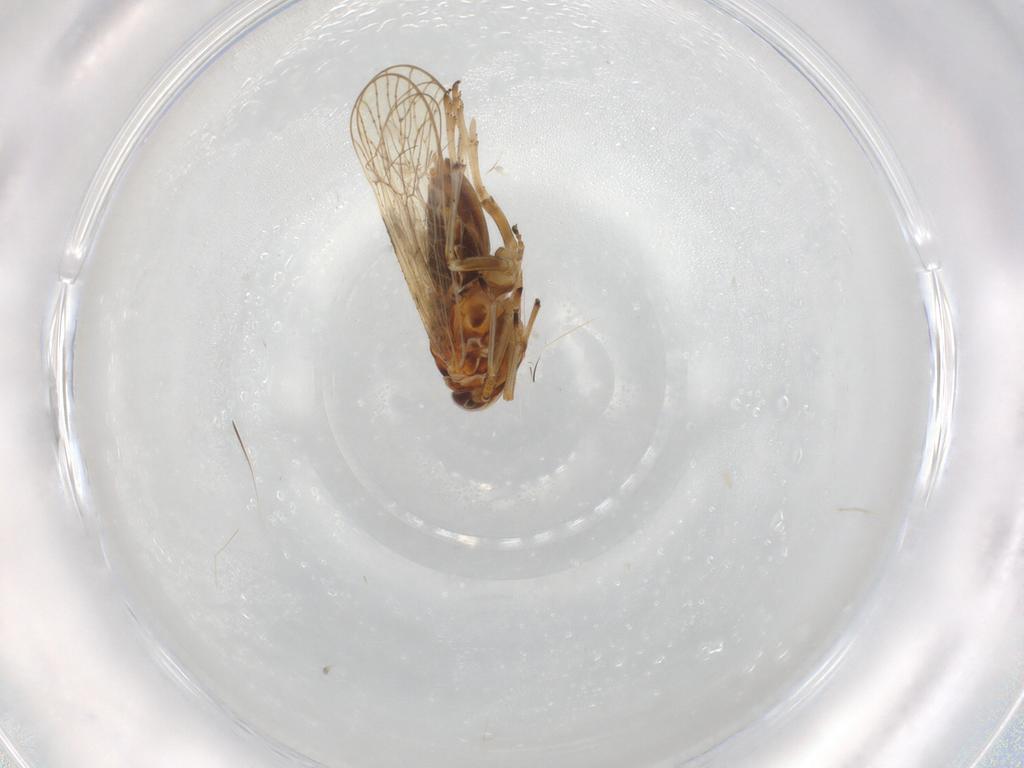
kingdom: Animalia
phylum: Arthropoda
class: Insecta
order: Hemiptera
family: Delphacidae
